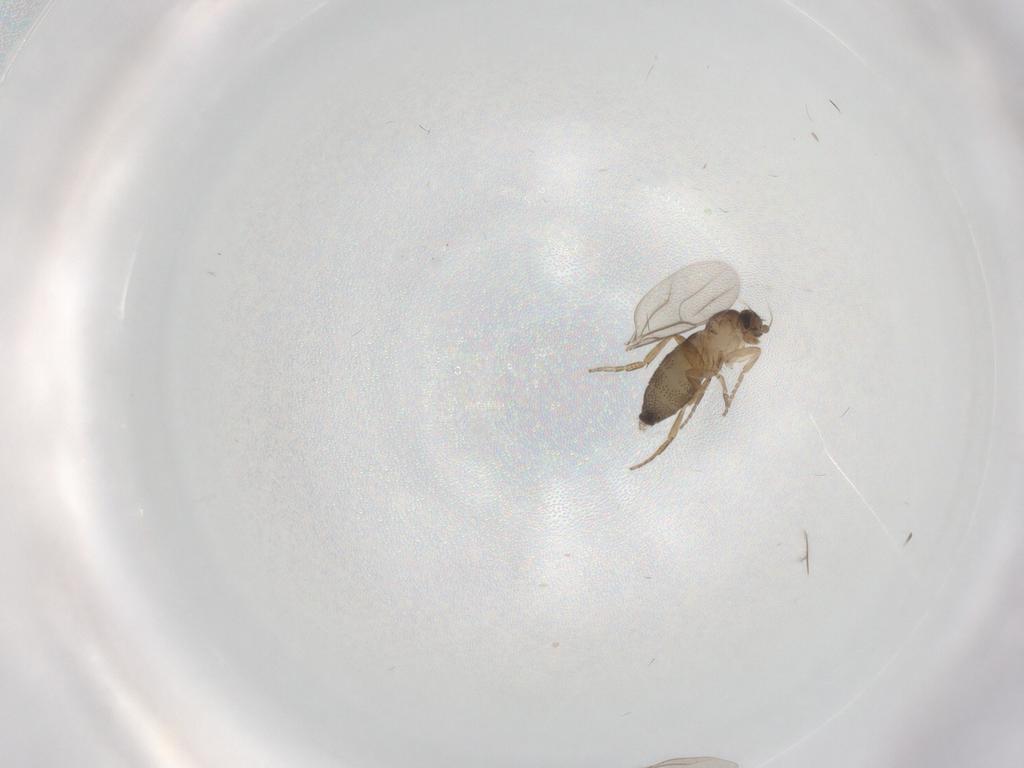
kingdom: Animalia
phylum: Arthropoda
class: Insecta
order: Diptera
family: Phoridae
